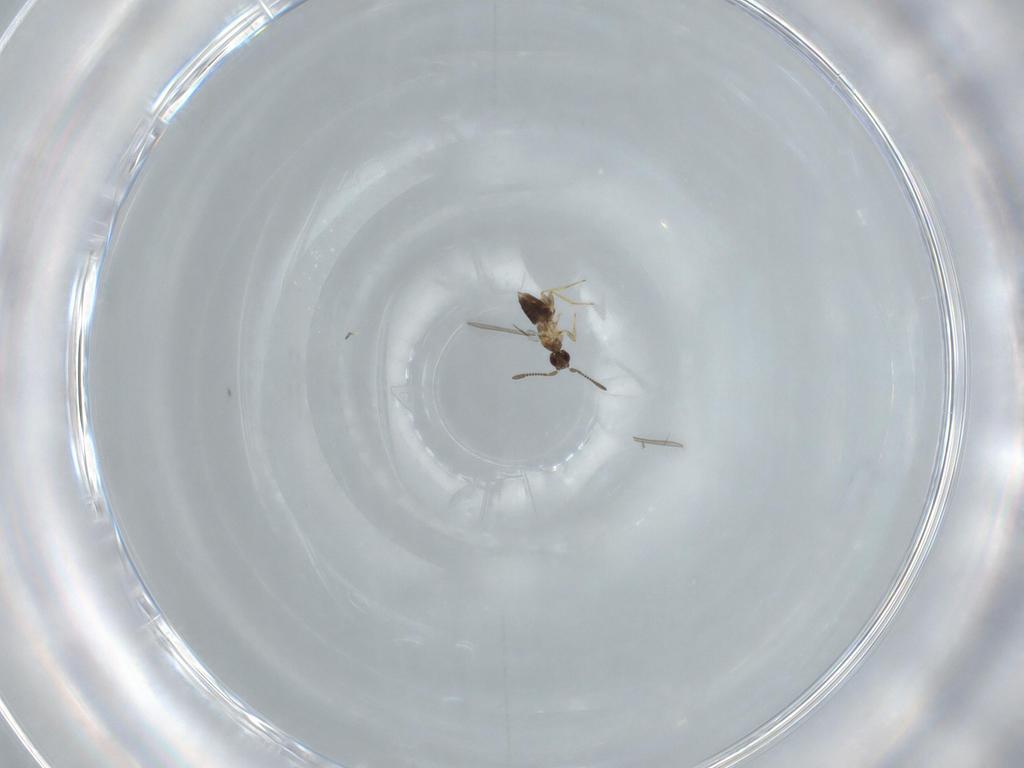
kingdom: Animalia
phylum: Arthropoda
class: Insecta
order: Hymenoptera
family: Mymaridae
